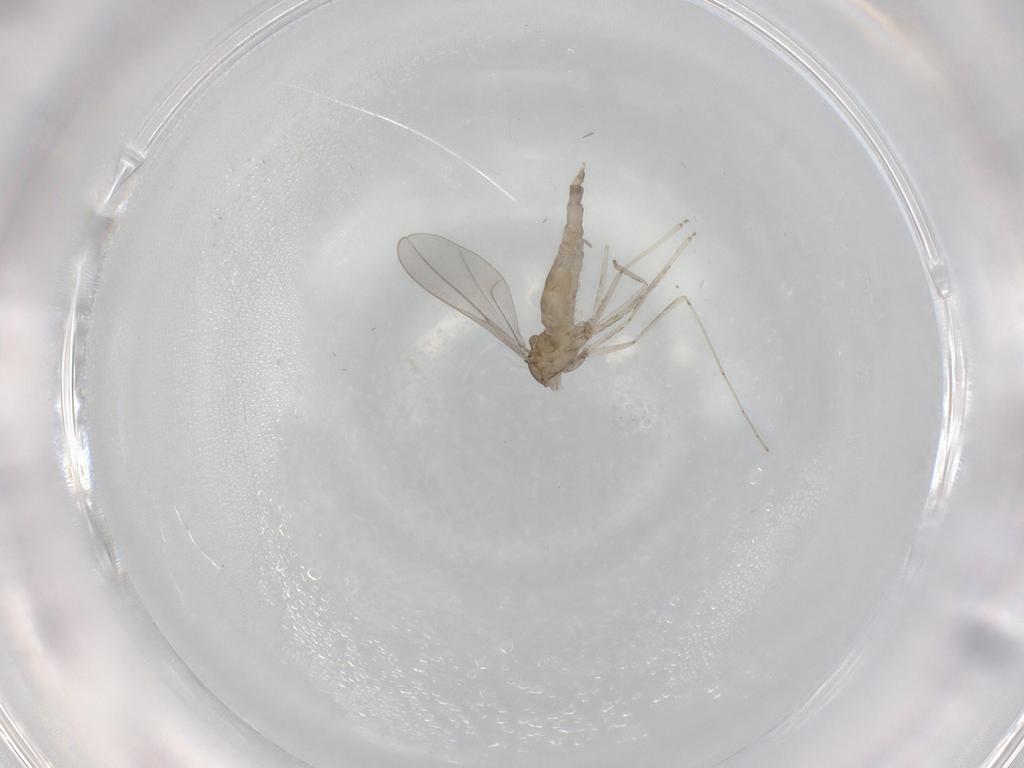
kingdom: Animalia
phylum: Arthropoda
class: Insecta
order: Diptera
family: Cecidomyiidae
